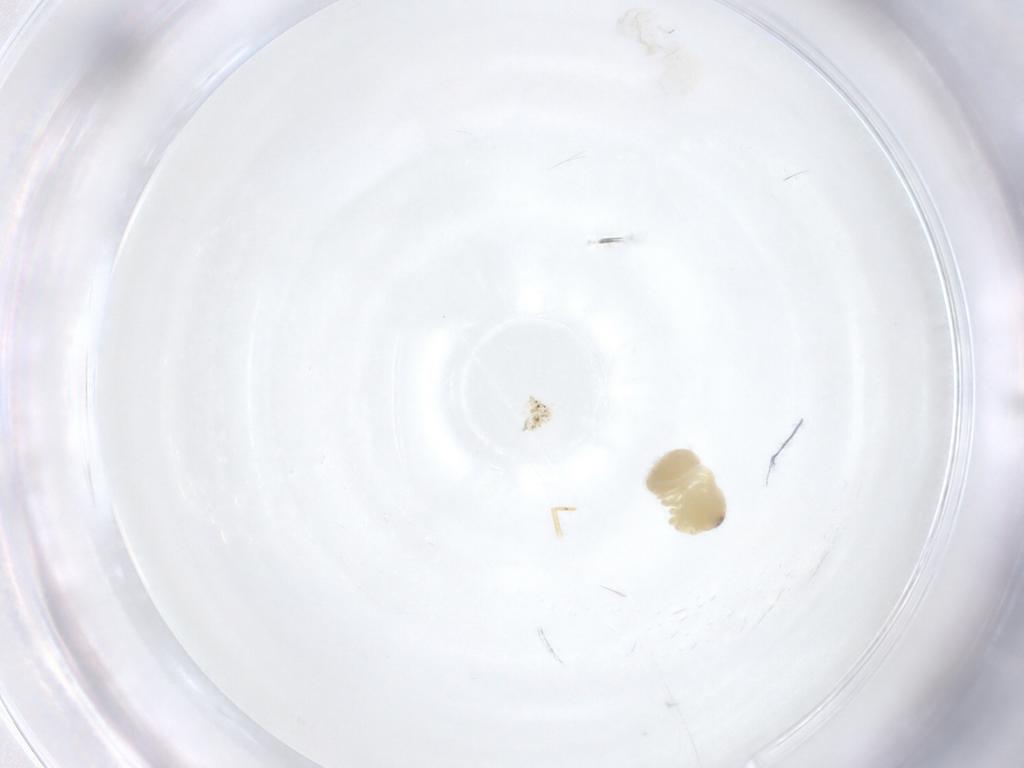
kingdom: Animalia
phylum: Arthropoda
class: Arachnida
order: Araneae
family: Pholcidae
